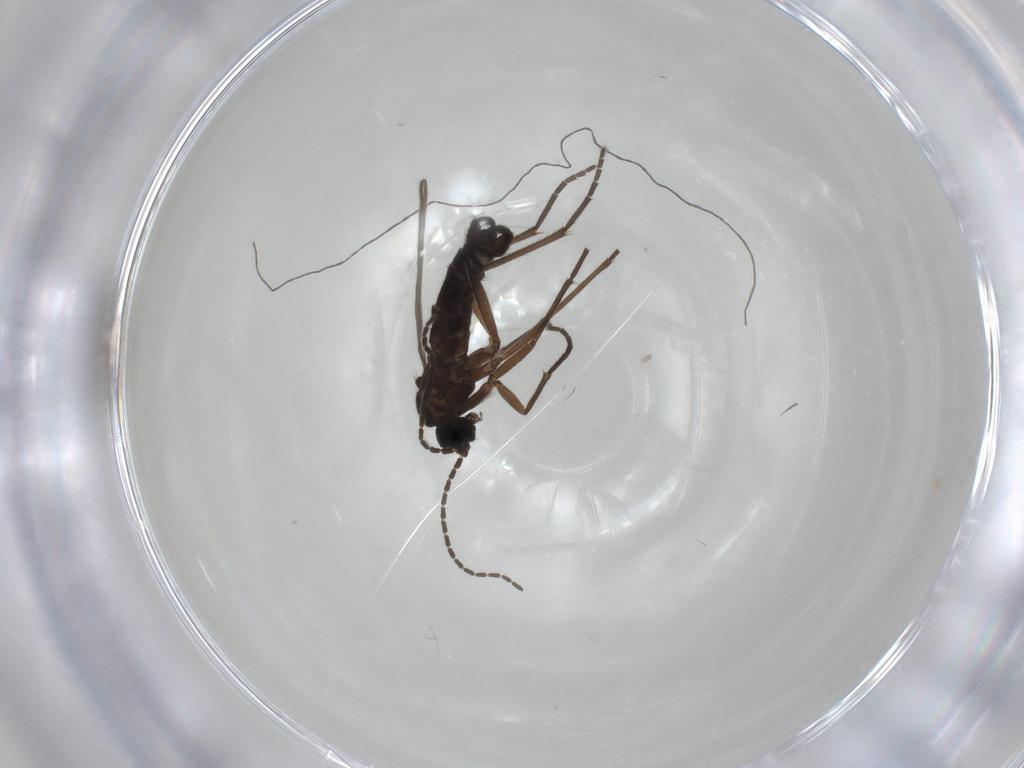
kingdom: Animalia
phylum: Arthropoda
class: Insecta
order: Diptera
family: Sciaridae
